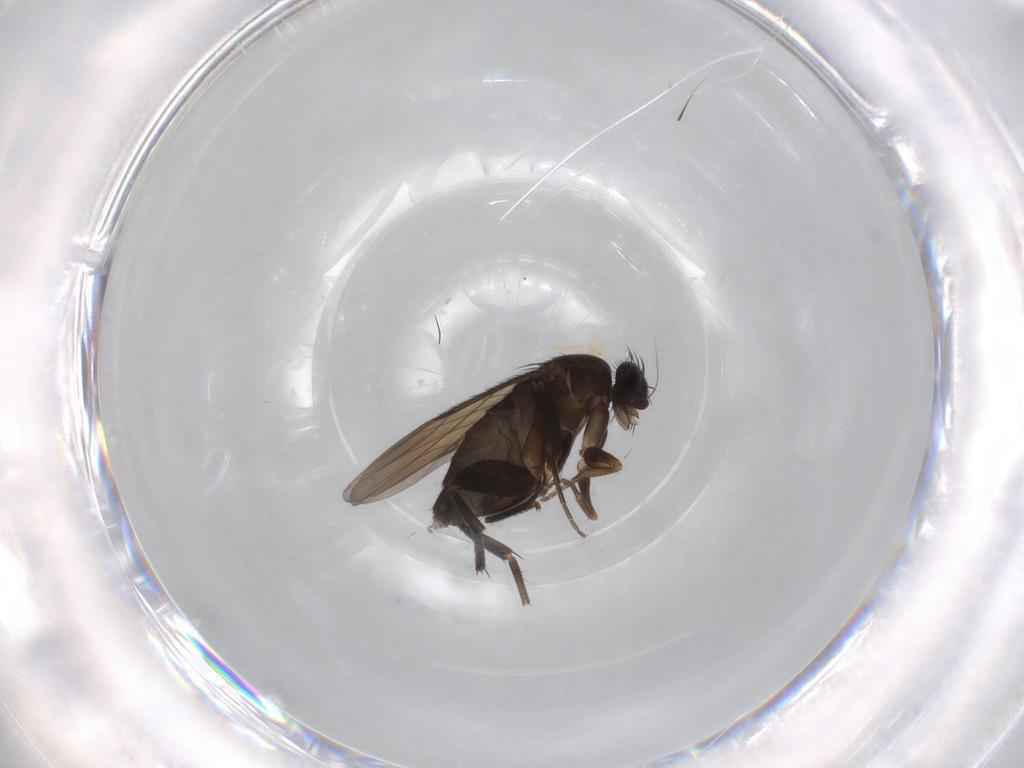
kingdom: Animalia
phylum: Arthropoda
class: Insecta
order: Diptera
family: Phoridae
